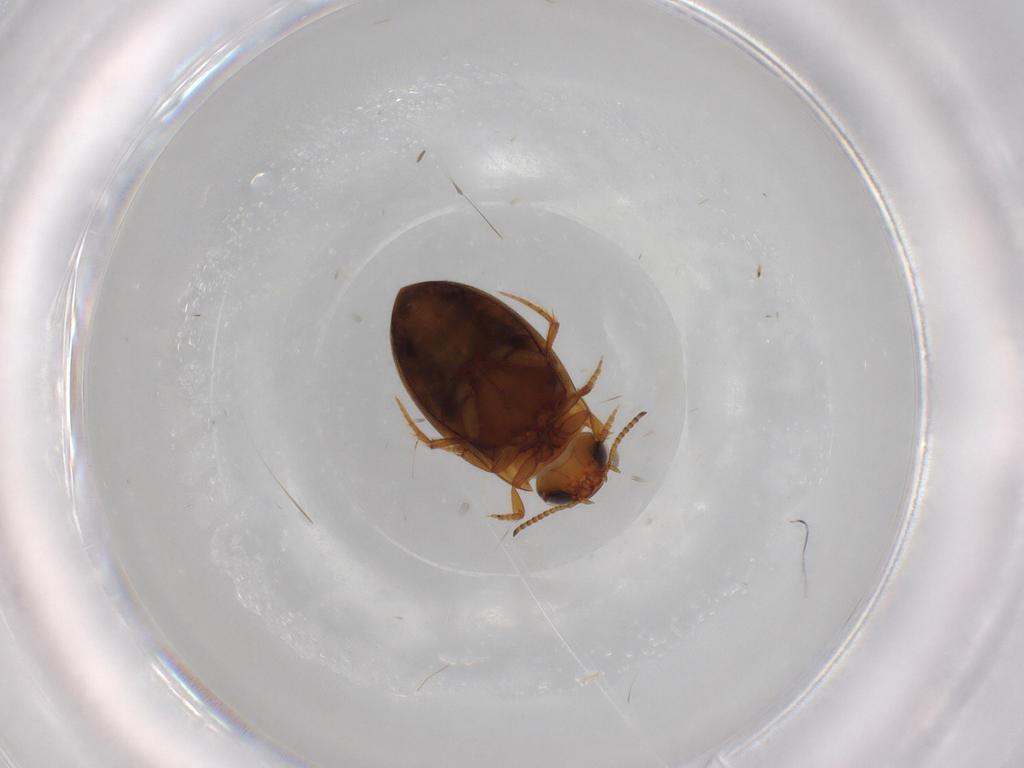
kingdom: Animalia
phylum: Arthropoda
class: Insecta
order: Coleoptera
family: Dytiscidae
